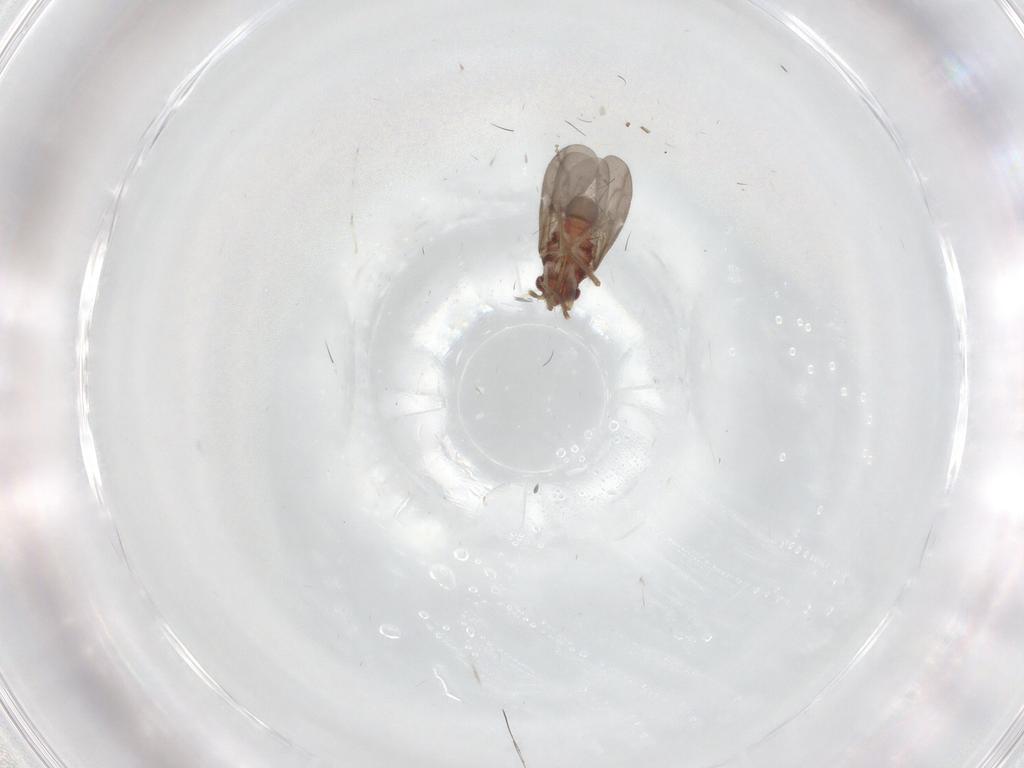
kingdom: Animalia
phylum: Arthropoda
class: Insecta
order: Hemiptera
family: Ceratocombidae
